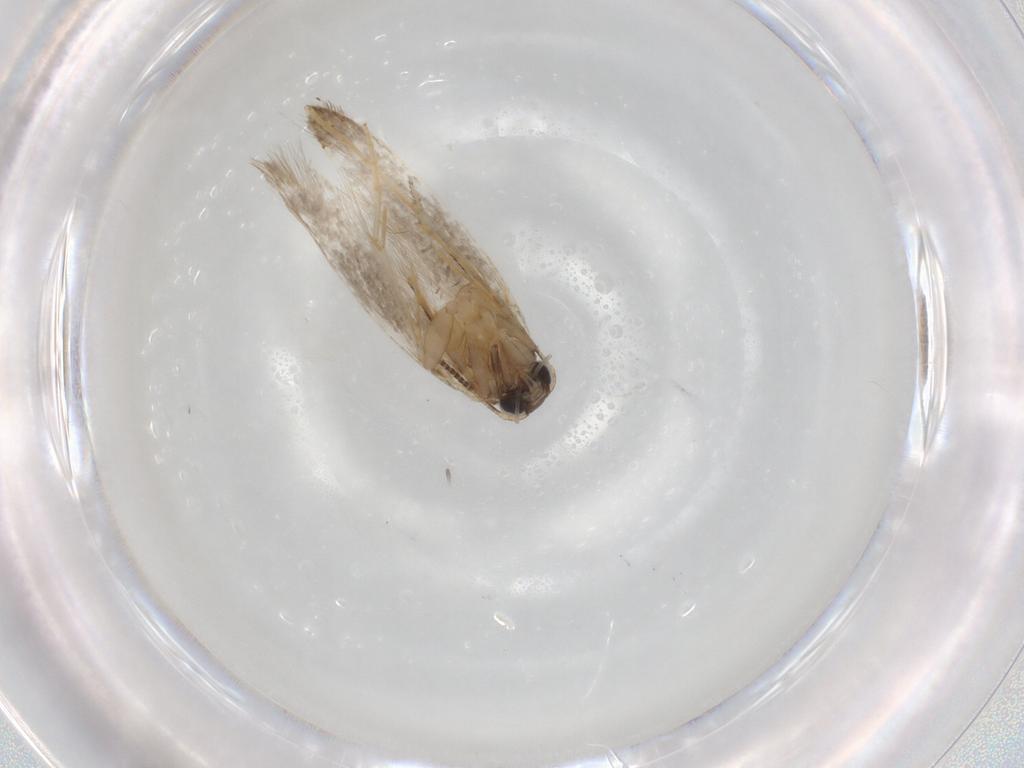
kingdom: Animalia
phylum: Arthropoda
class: Insecta
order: Lepidoptera
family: Tineidae
